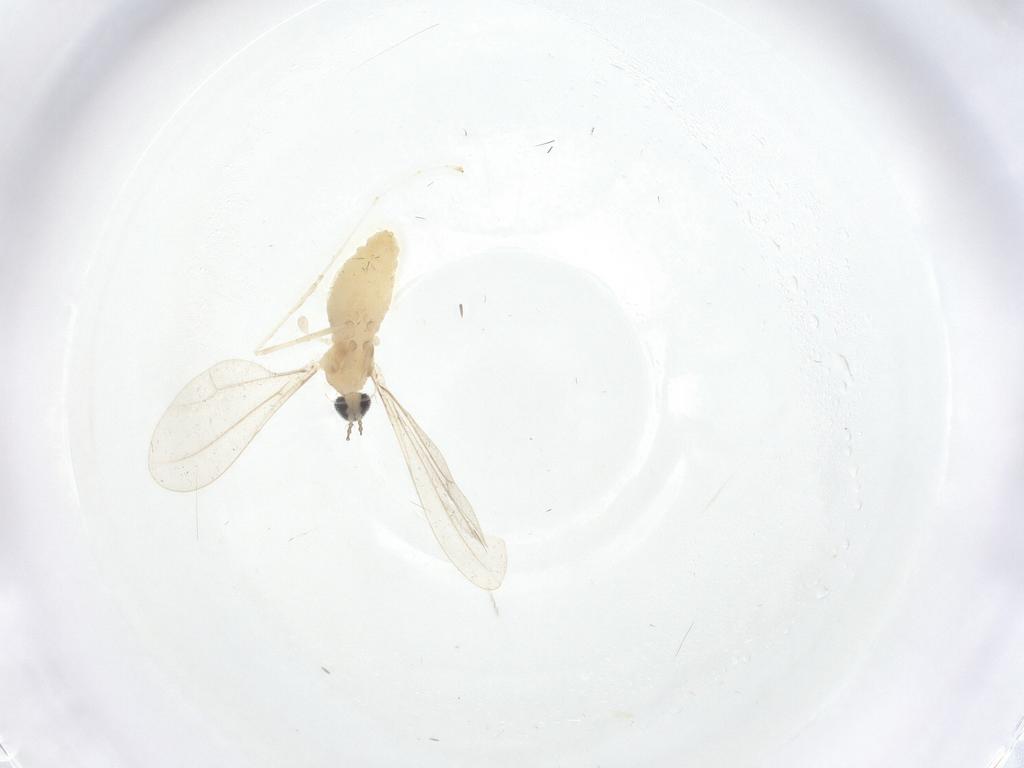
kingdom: Animalia
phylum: Arthropoda
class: Insecta
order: Diptera
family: Cecidomyiidae
